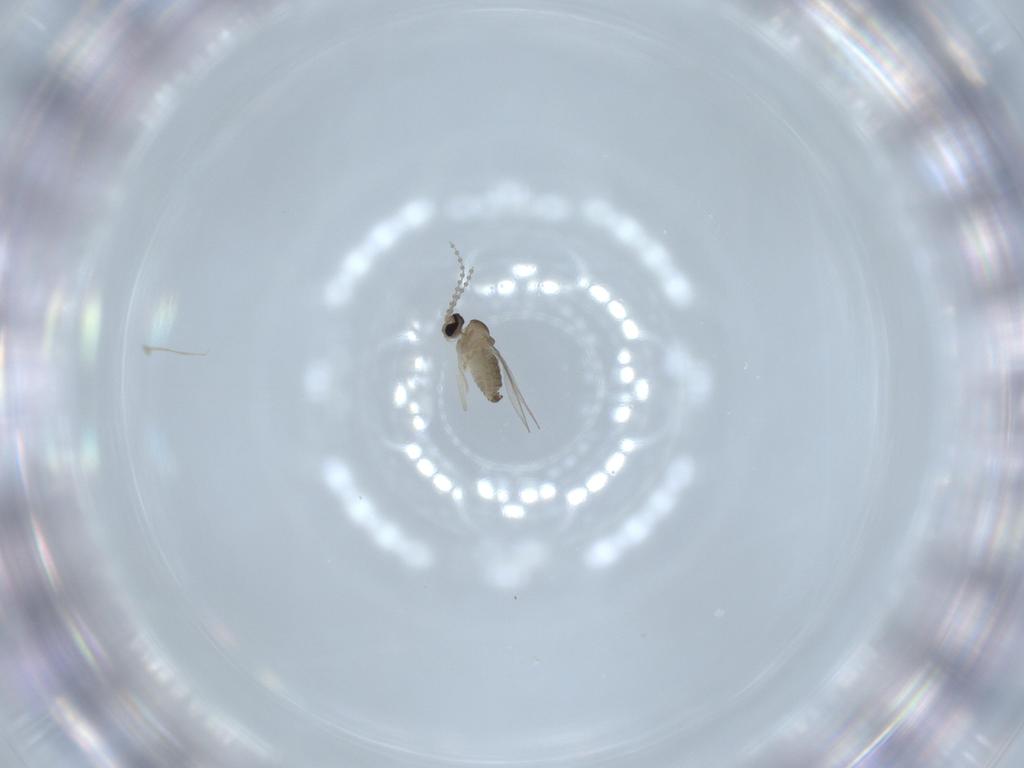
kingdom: Animalia
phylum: Arthropoda
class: Insecta
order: Diptera
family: Cecidomyiidae
